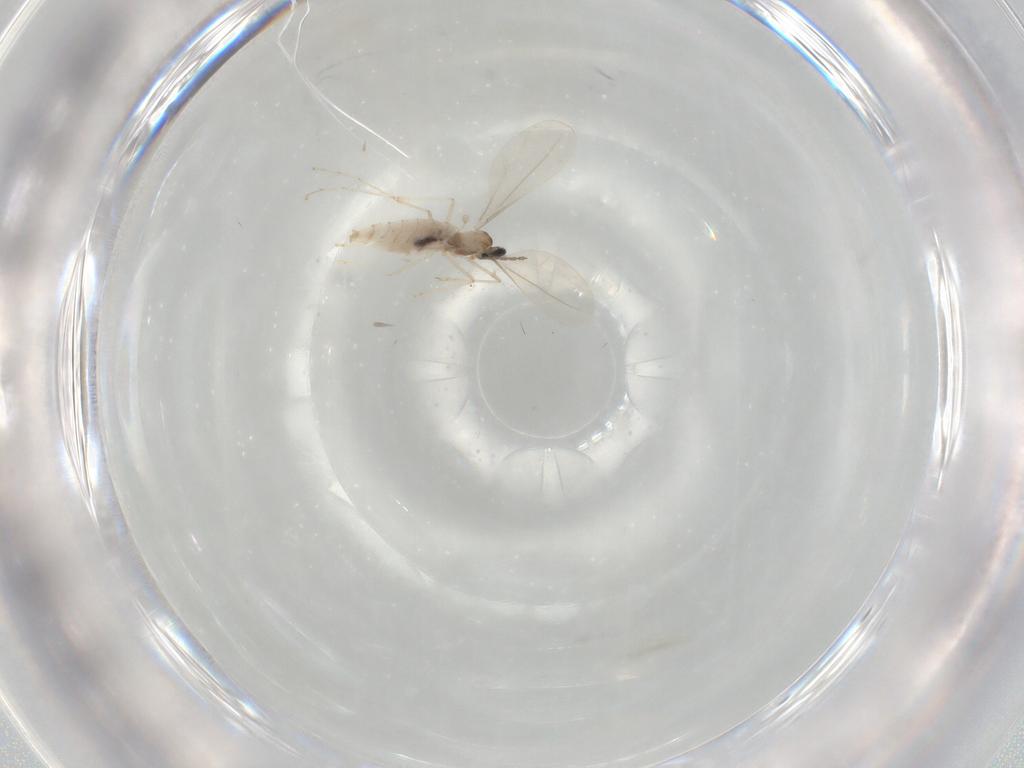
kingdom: Animalia
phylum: Arthropoda
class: Insecta
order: Diptera
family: Cecidomyiidae
